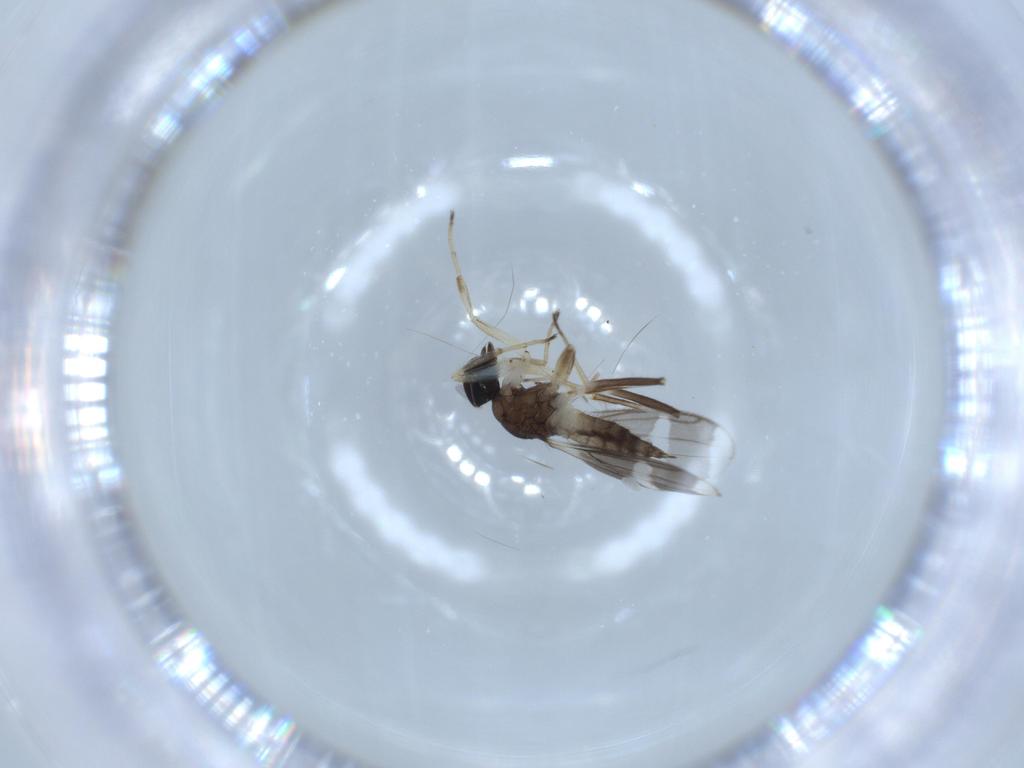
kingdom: Animalia
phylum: Arthropoda
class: Insecta
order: Diptera
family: Hybotidae
